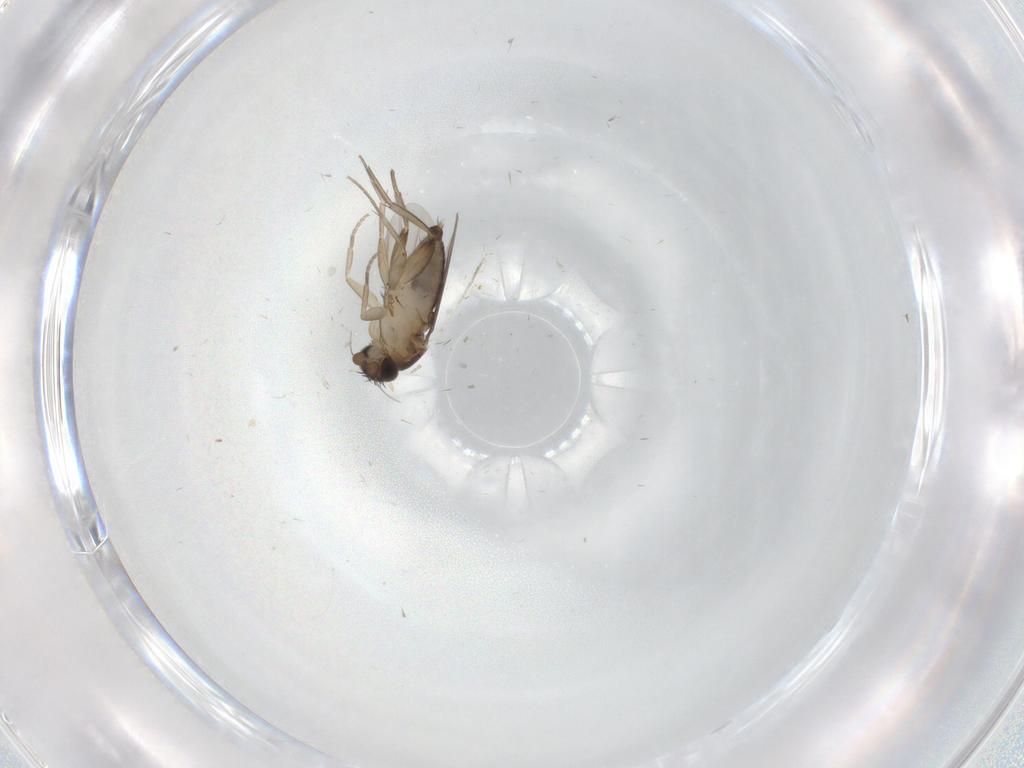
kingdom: Animalia
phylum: Arthropoda
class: Insecta
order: Diptera
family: Phoridae
